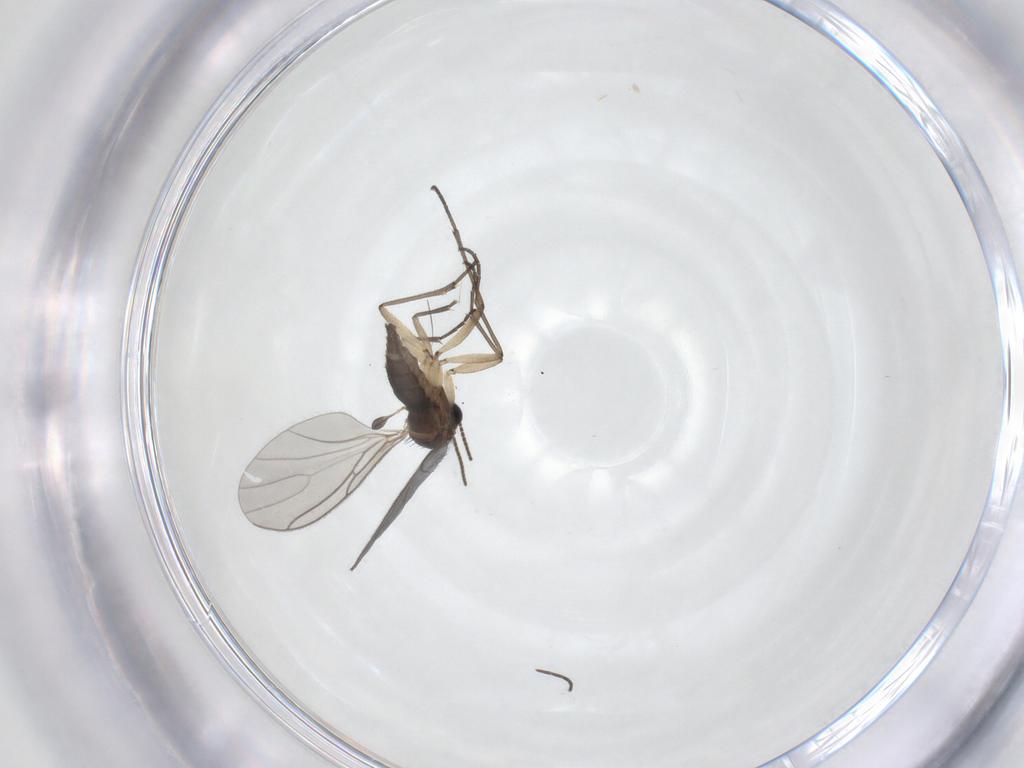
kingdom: Animalia
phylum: Arthropoda
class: Insecta
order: Diptera
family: Sciaridae
